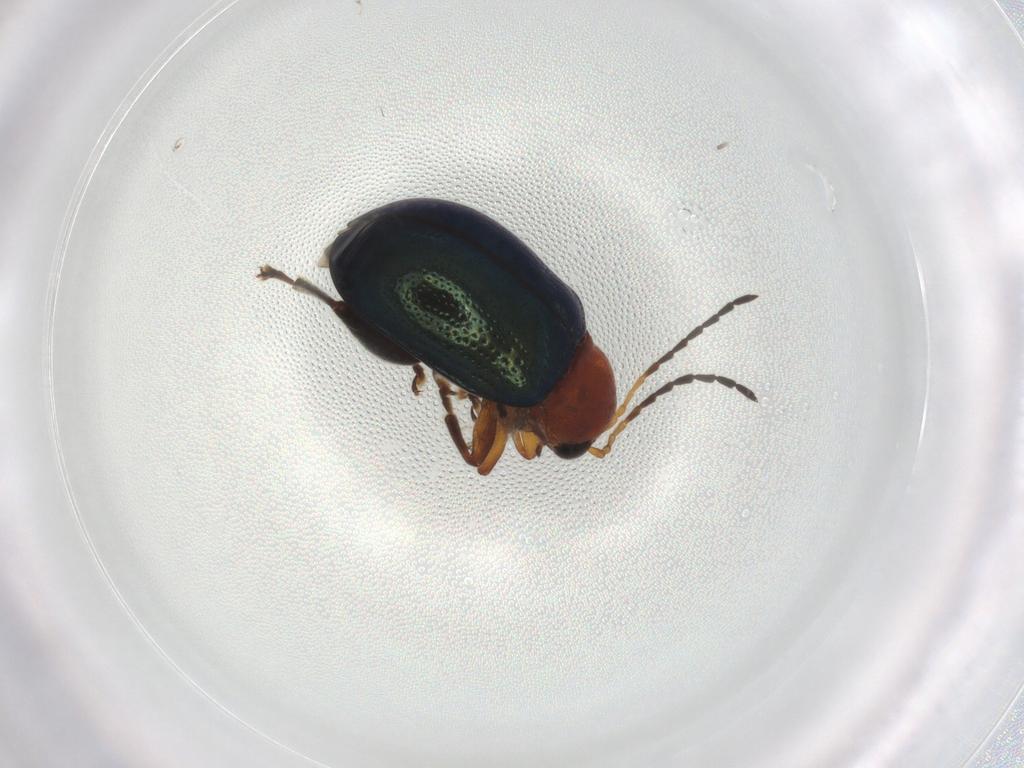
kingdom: Animalia
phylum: Arthropoda
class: Insecta
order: Coleoptera
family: Chrysomelidae
